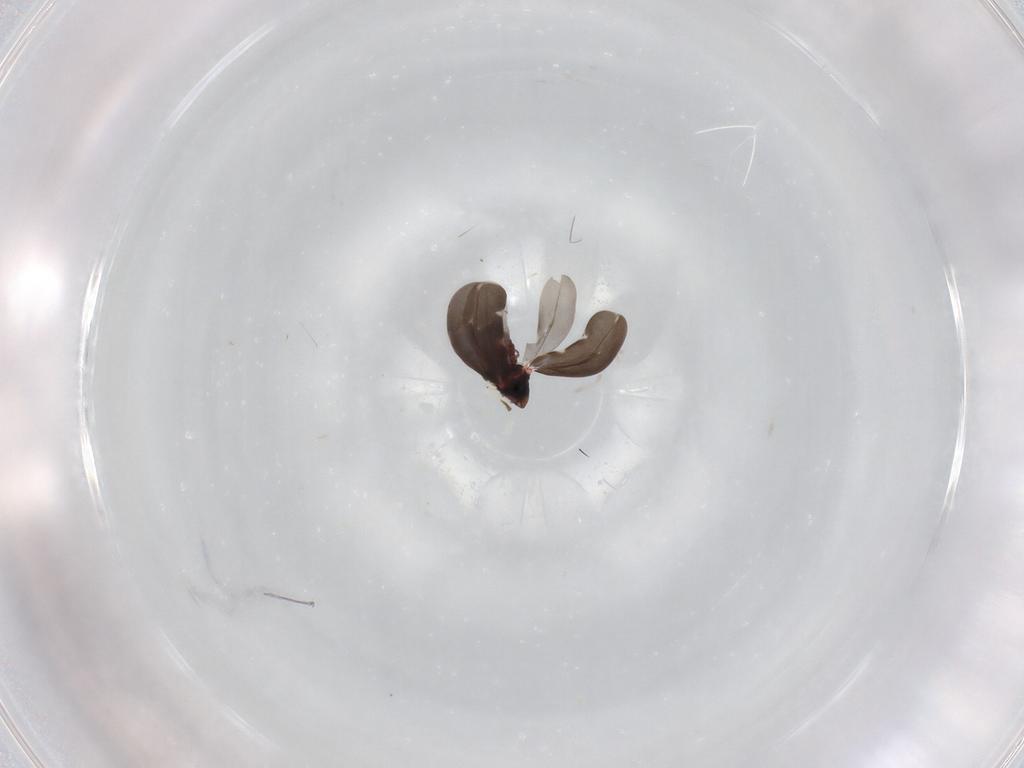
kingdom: Animalia
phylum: Arthropoda
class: Insecta
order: Hemiptera
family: Aleyrodidae
